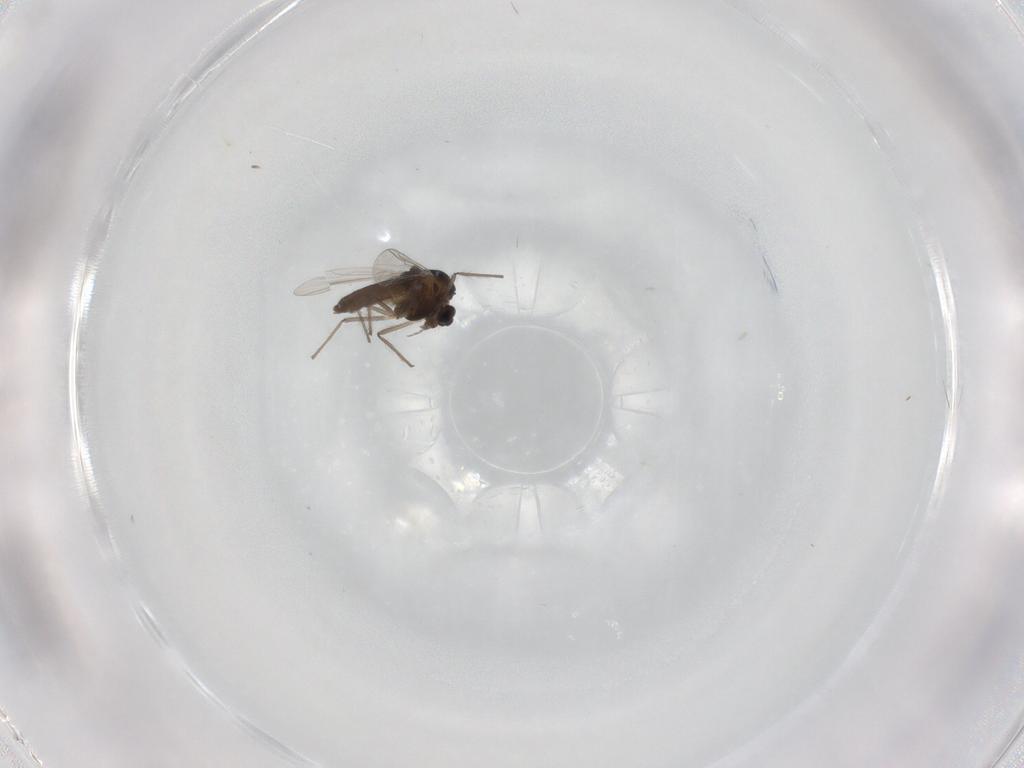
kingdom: Animalia
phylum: Arthropoda
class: Insecta
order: Diptera
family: Chironomidae
